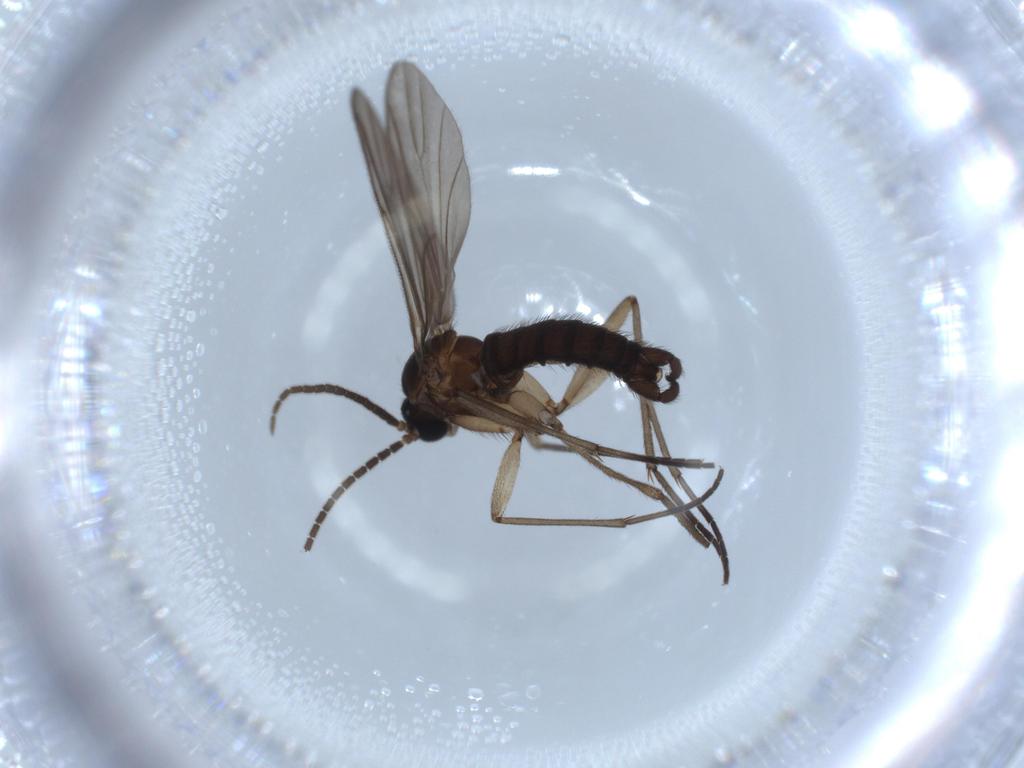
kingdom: Animalia
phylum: Arthropoda
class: Insecta
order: Diptera
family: Sciaridae
